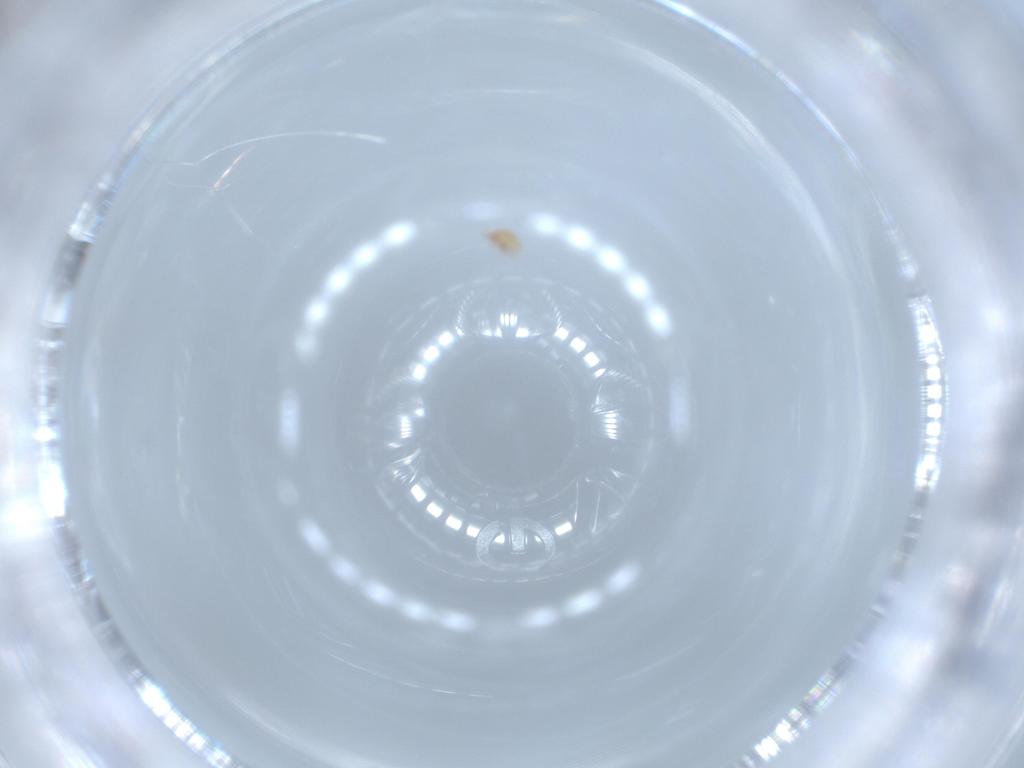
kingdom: Animalia
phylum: Arthropoda
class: Arachnida
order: Trombidiformes
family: Pygmephoridae
